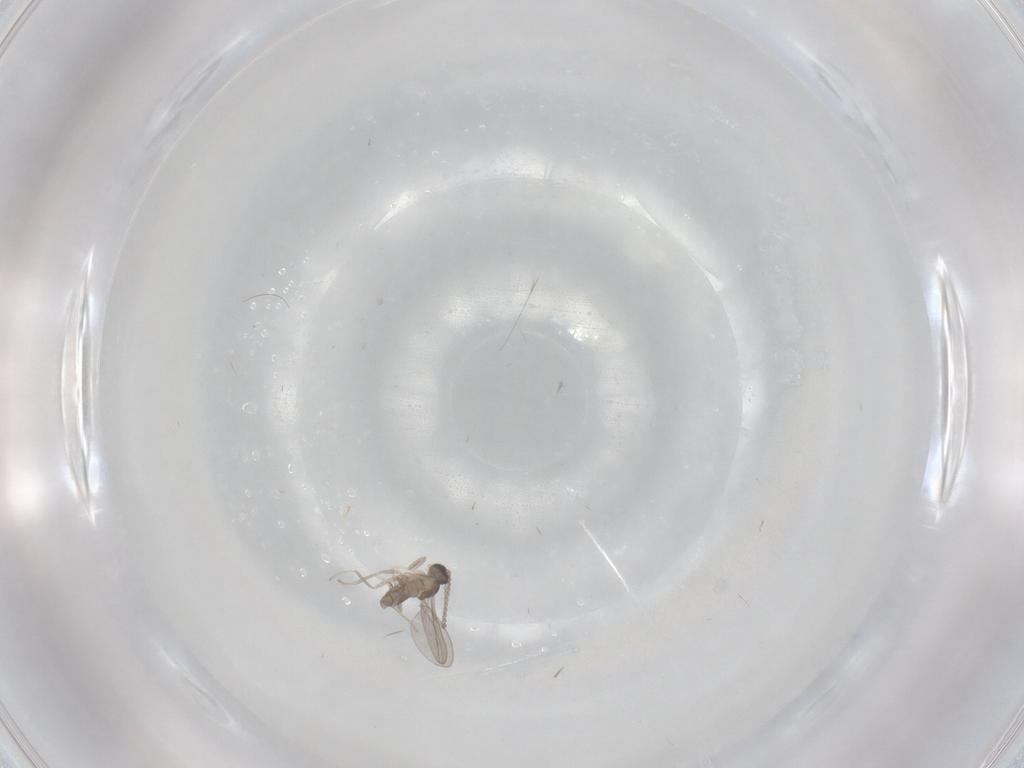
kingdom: Animalia
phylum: Arthropoda
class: Insecta
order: Diptera
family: Cecidomyiidae
